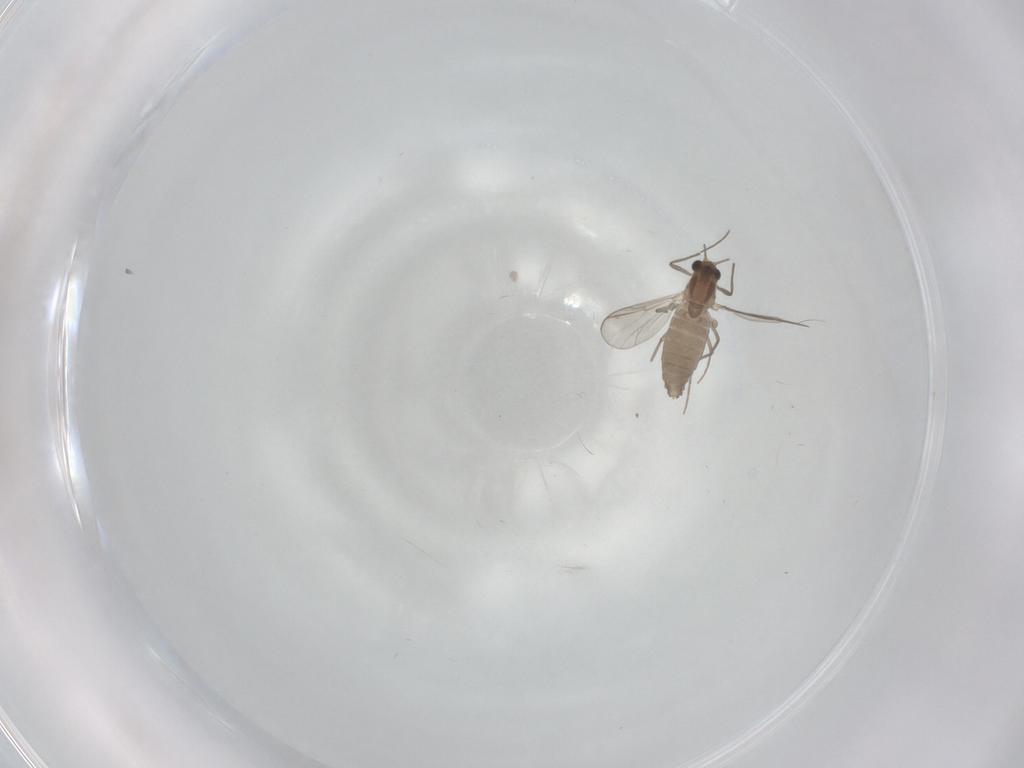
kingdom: Animalia
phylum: Arthropoda
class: Insecta
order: Diptera
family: Chironomidae
